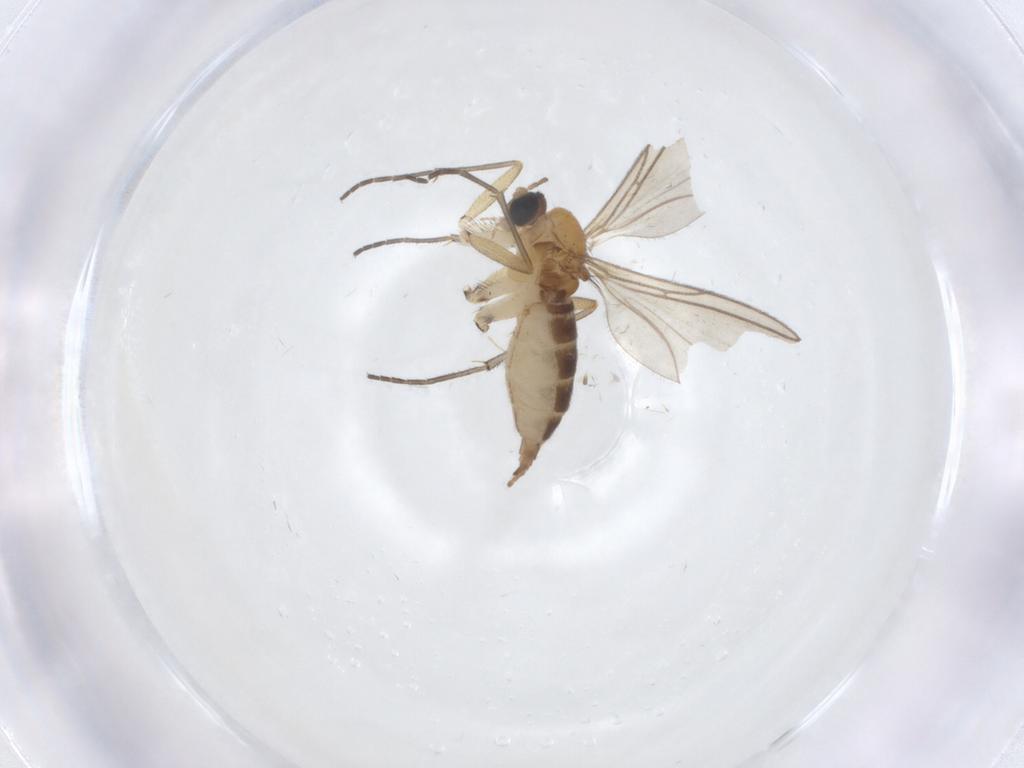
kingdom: Animalia
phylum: Arthropoda
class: Insecta
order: Diptera
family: Sciaridae
